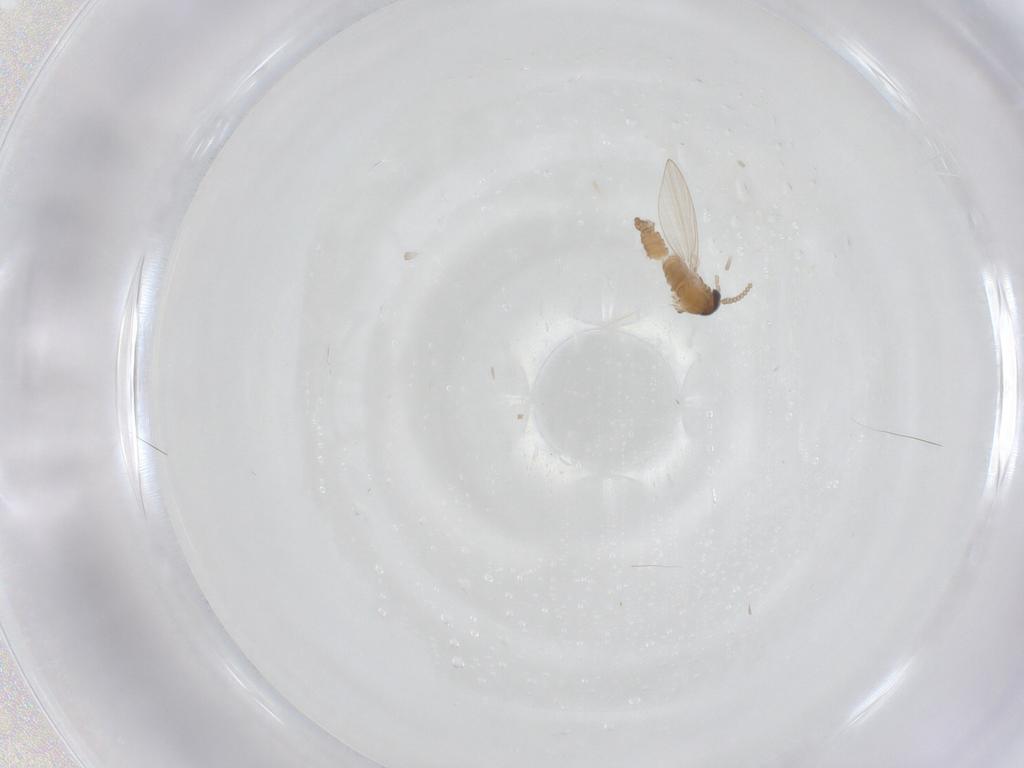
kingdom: Animalia
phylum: Arthropoda
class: Insecta
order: Diptera
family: Psychodidae
